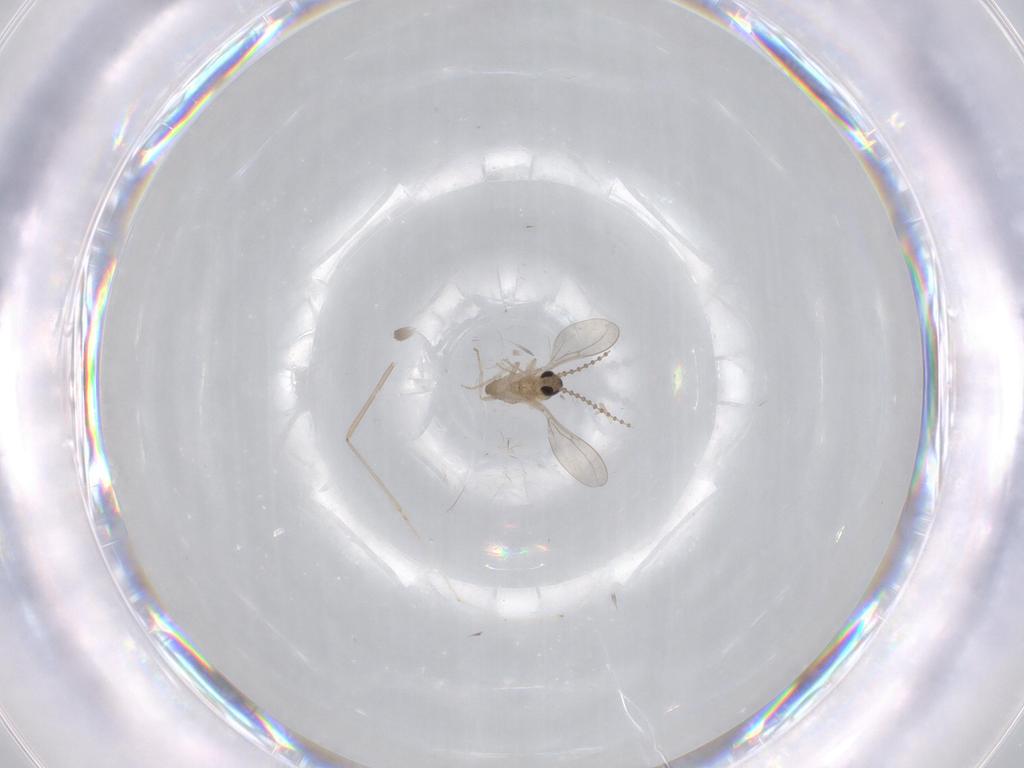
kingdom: Animalia
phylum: Arthropoda
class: Insecta
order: Diptera
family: Cecidomyiidae
